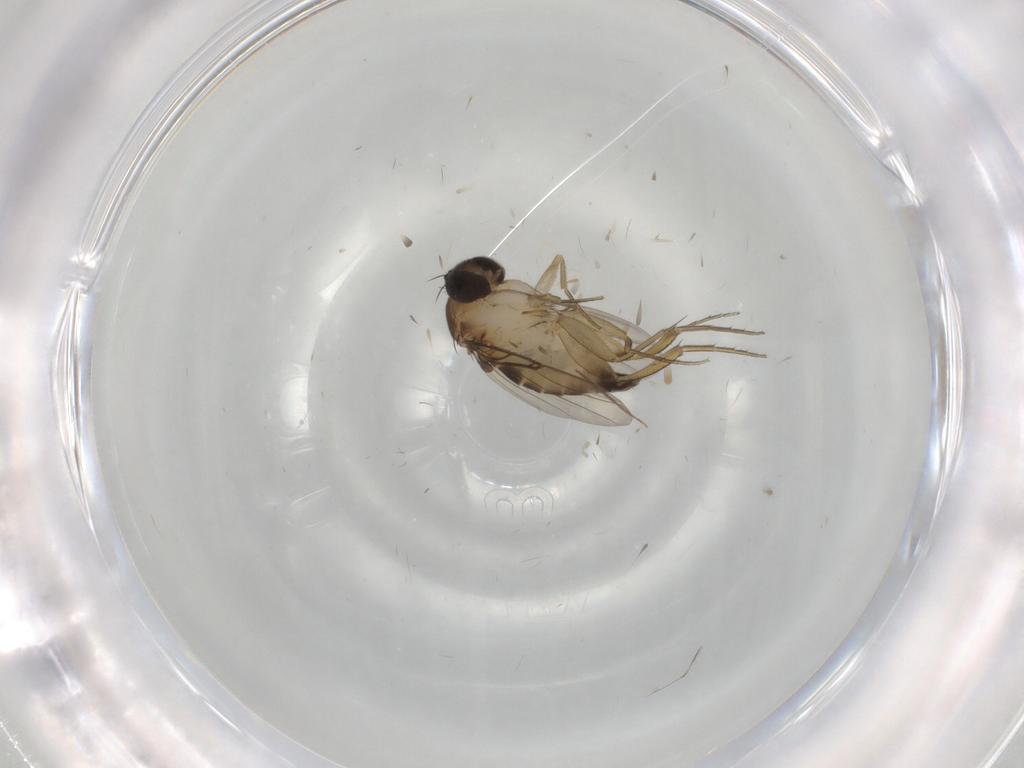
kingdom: Animalia
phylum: Arthropoda
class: Insecta
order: Diptera
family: Phoridae
